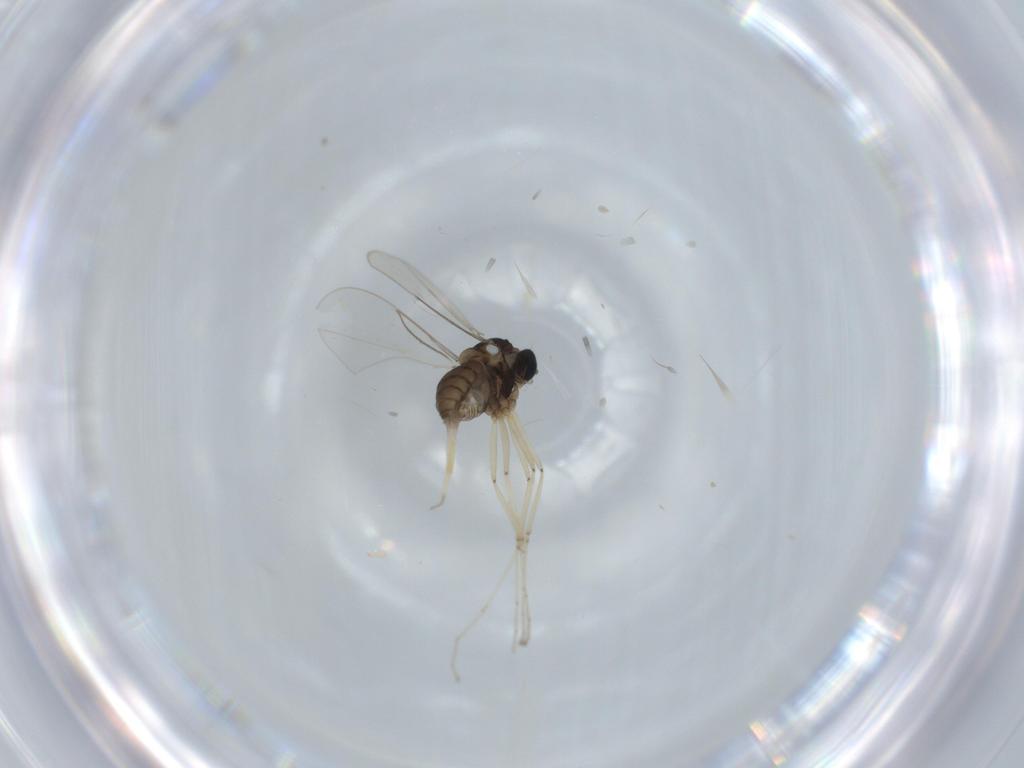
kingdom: Animalia
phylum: Arthropoda
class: Insecta
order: Diptera
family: Cecidomyiidae
